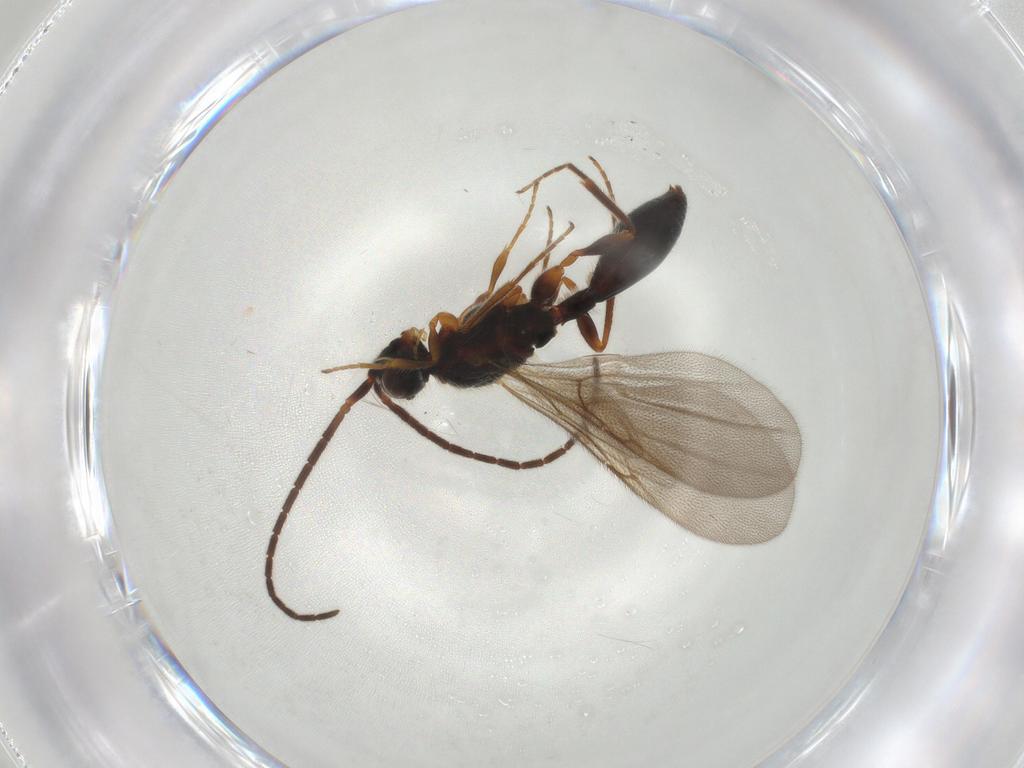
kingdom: Animalia
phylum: Arthropoda
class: Insecta
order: Hymenoptera
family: Diapriidae
